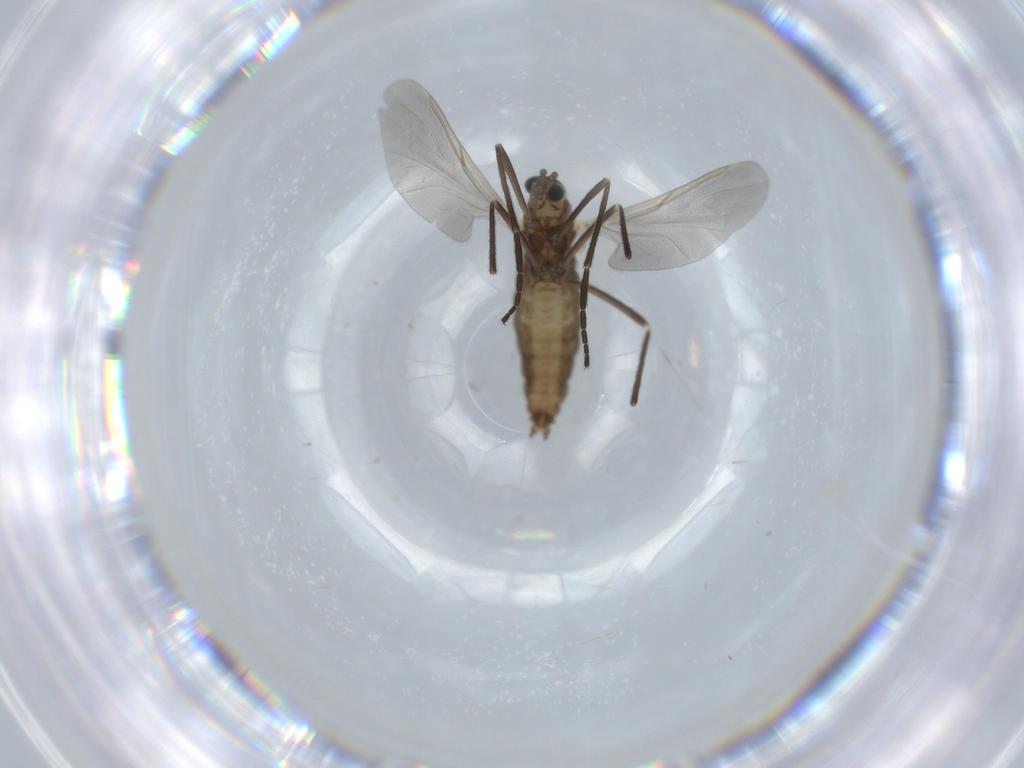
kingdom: Animalia
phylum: Arthropoda
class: Insecta
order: Diptera
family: Cecidomyiidae
